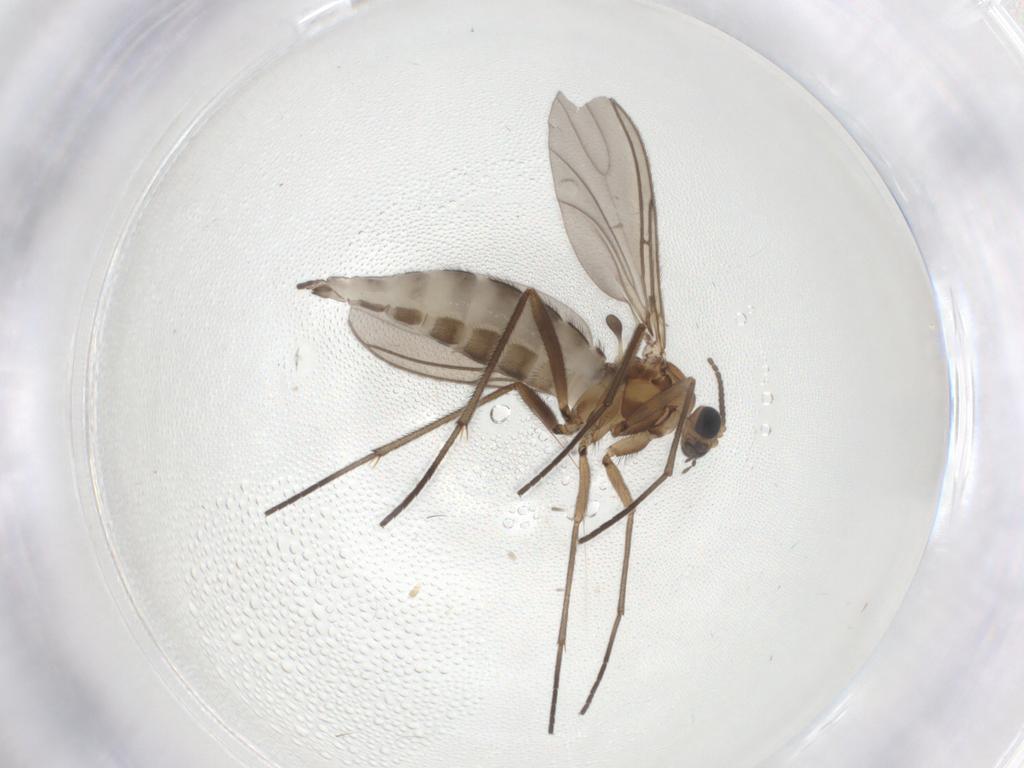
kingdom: Animalia
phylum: Arthropoda
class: Insecta
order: Diptera
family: Sciaridae
